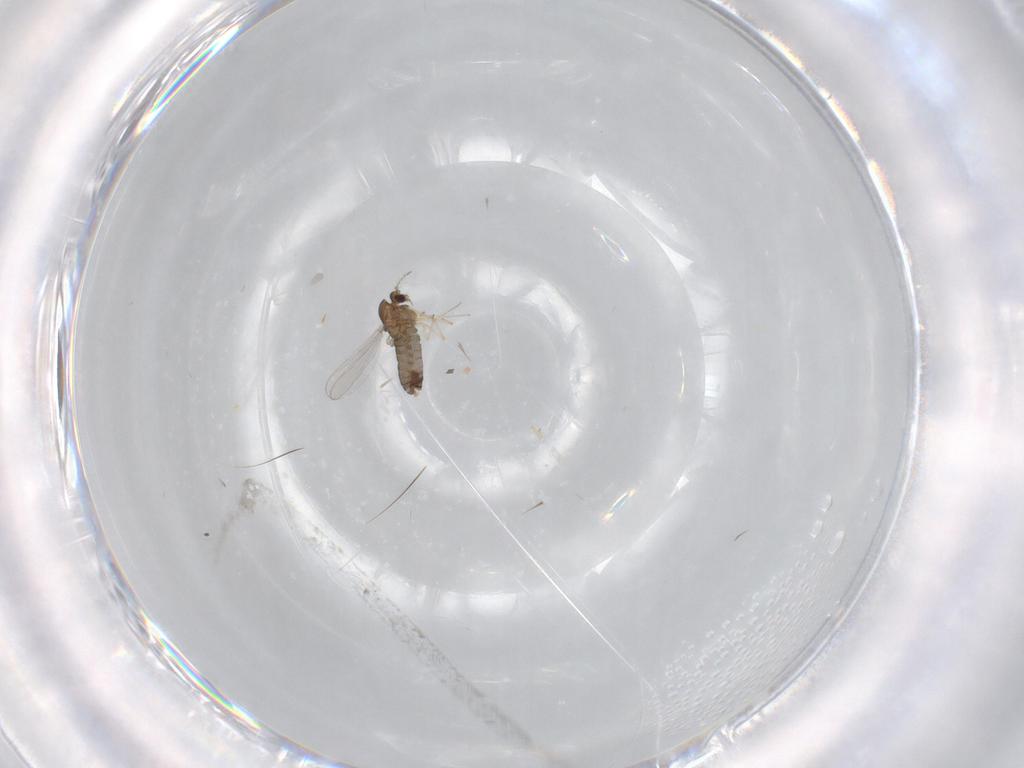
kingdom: Animalia
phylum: Arthropoda
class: Insecta
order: Diptera
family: Chironomidae
